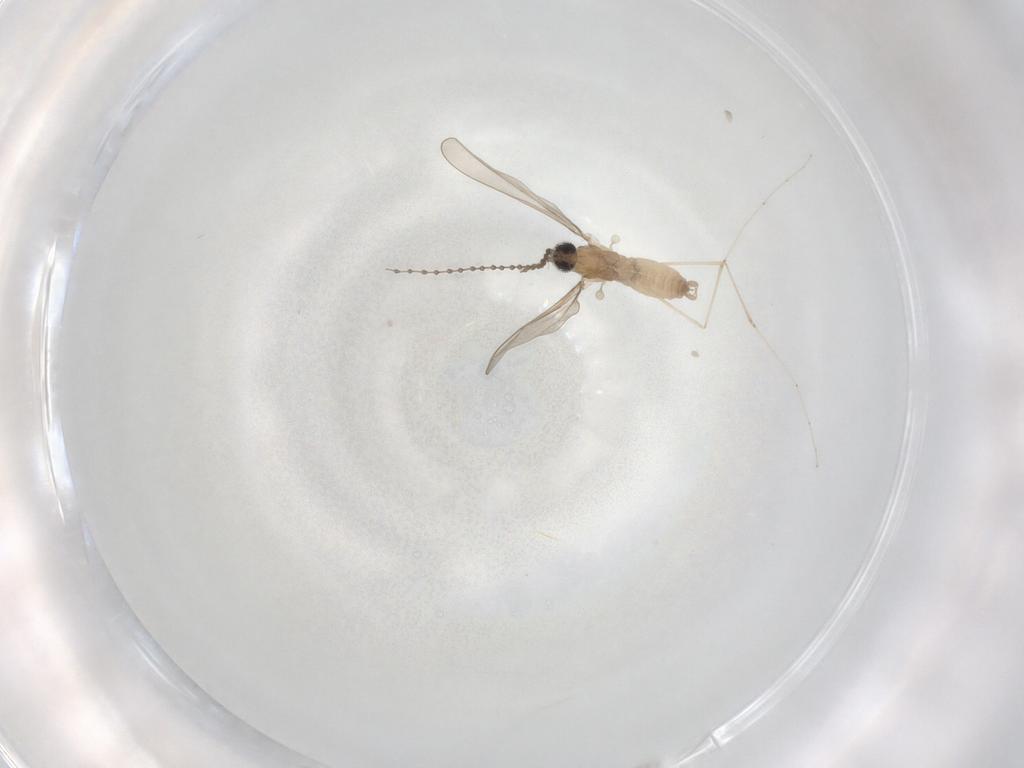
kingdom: Animalia
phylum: Arthropoda
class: Insecta
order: Diptera
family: Cecidomyiidae
